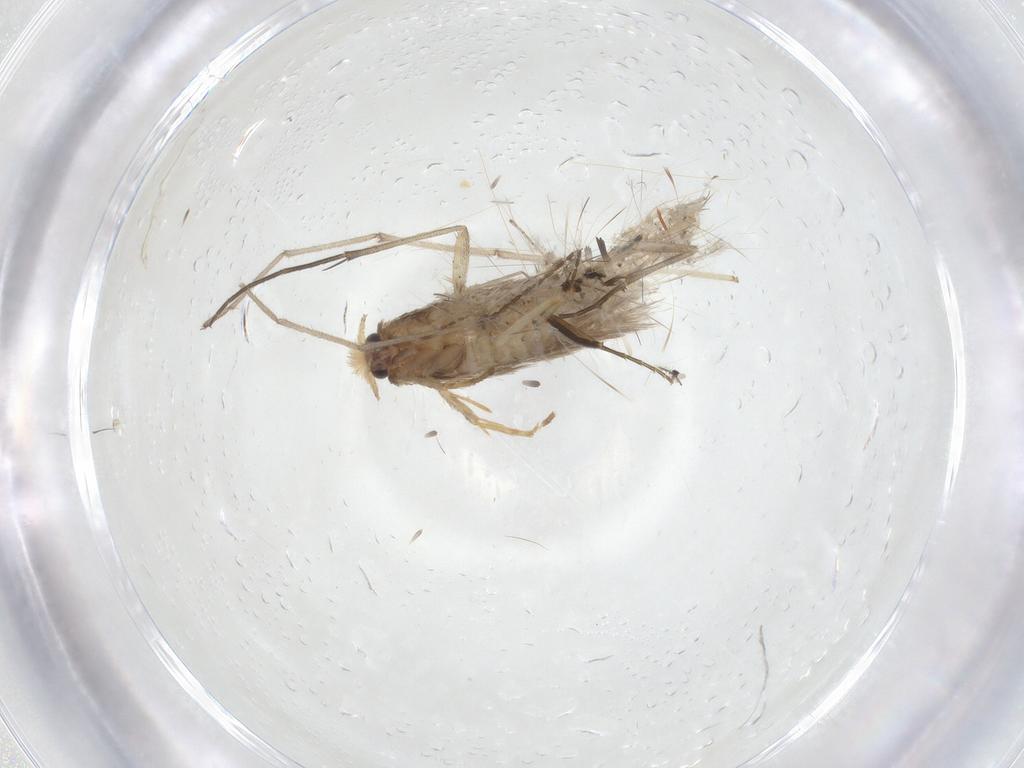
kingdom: Animalia
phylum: Arthropoda
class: Insecta
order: Lepidoptera
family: Nepticulidae
